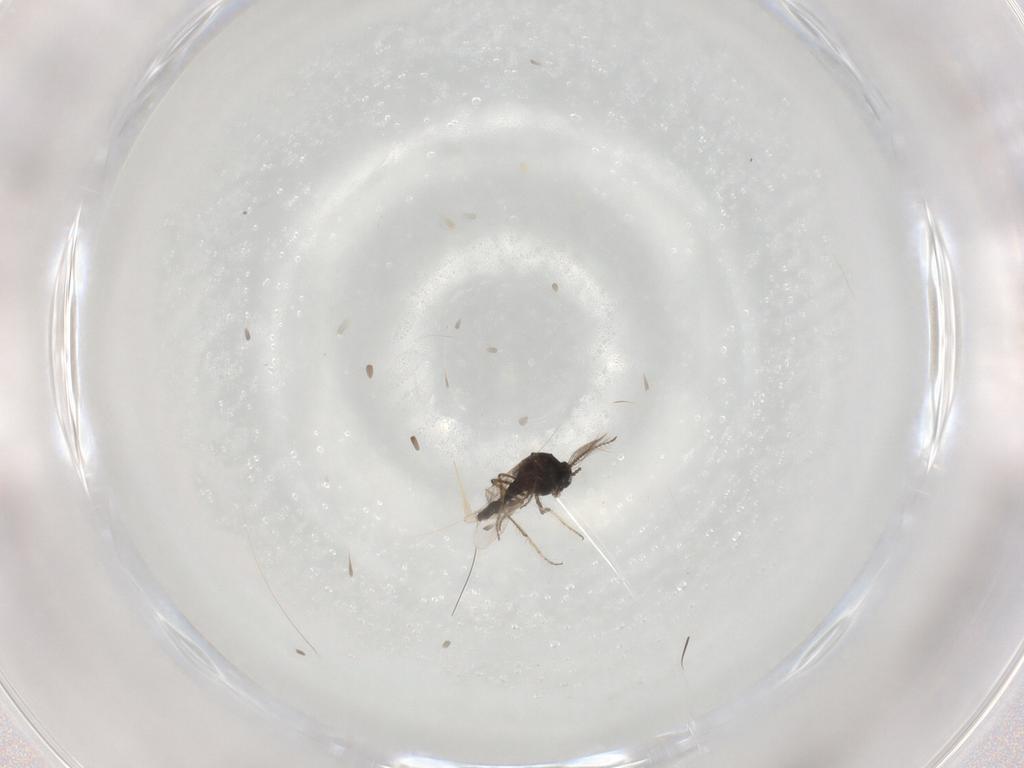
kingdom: Animalia
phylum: Arthropoda
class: Insecta
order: Diptera
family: Ceratopogonidae
